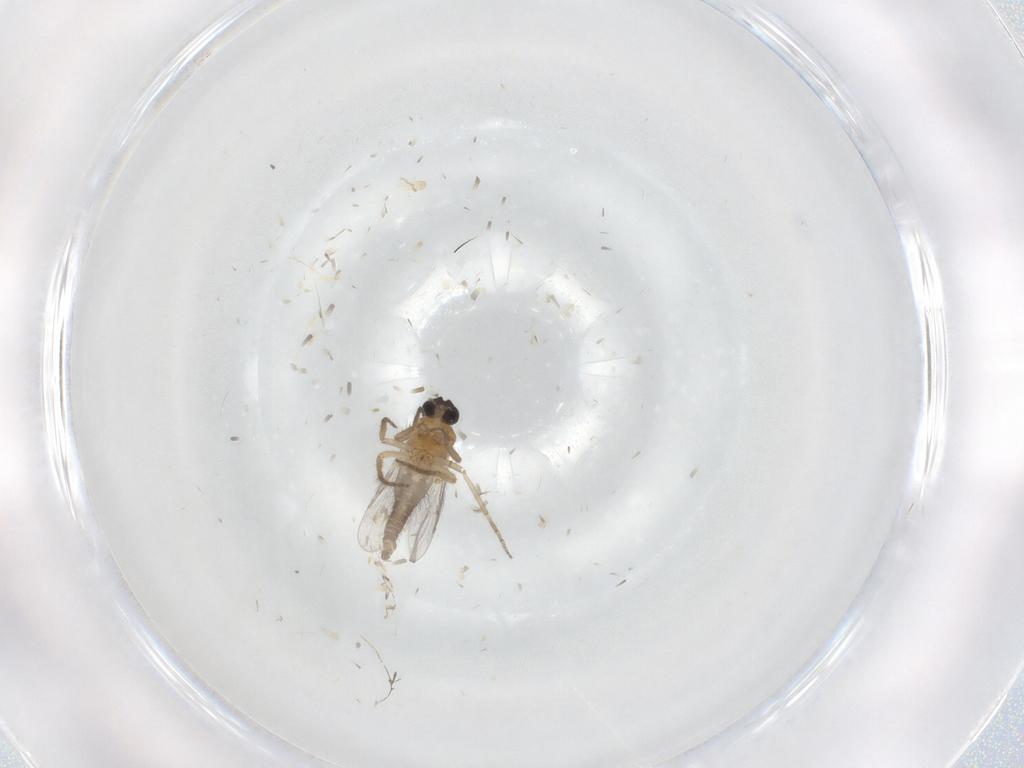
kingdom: Animalia
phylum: Arthropoda
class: Insecta
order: Diptera
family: Ceratopogonidae
